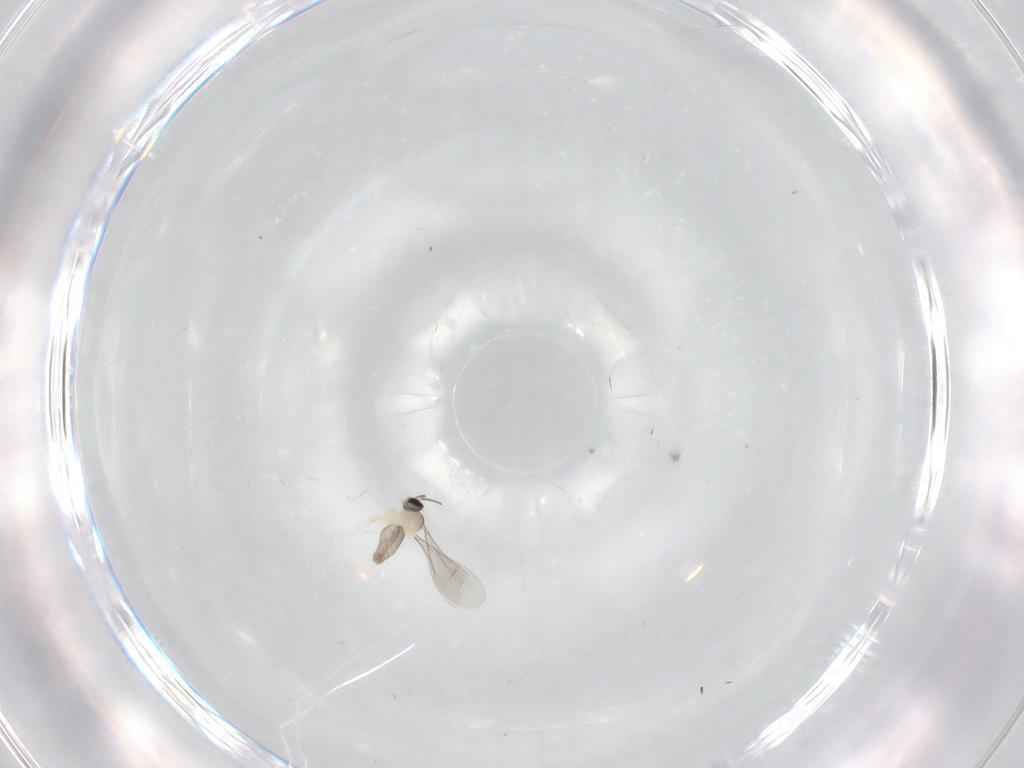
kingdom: Animalia
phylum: Arthropoda
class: Insecta
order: Diptera
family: Cecidomyiidae
